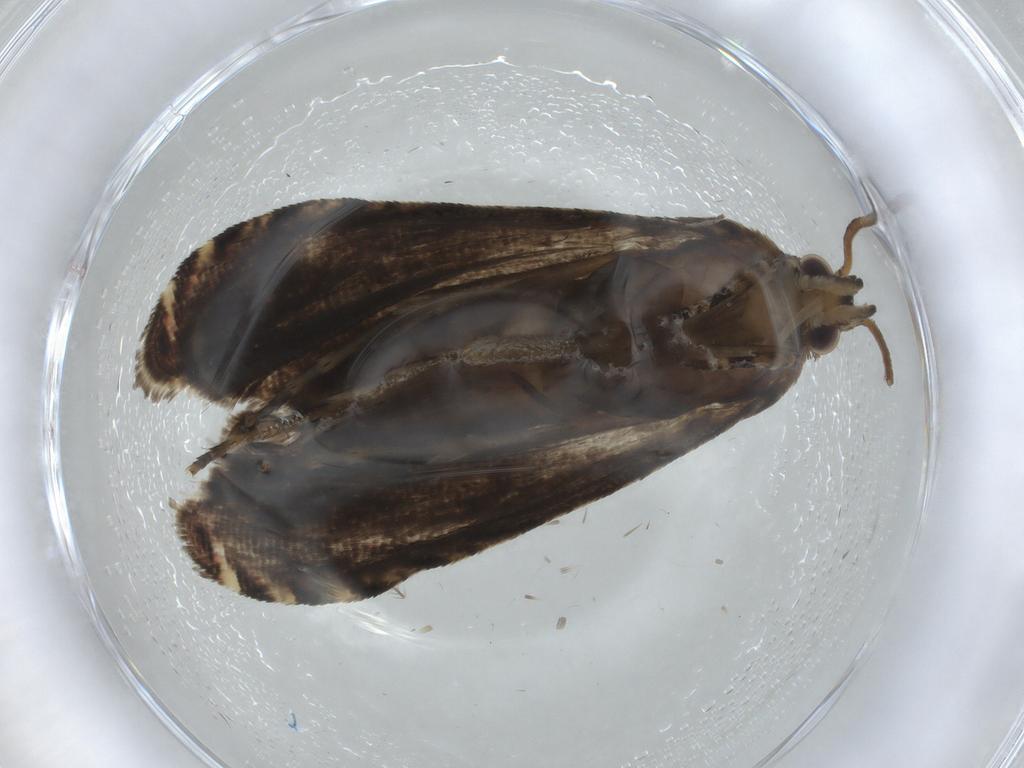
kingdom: Animalia
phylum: Arthropoda
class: Insecta
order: Lepidoptera
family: Tortricidae
